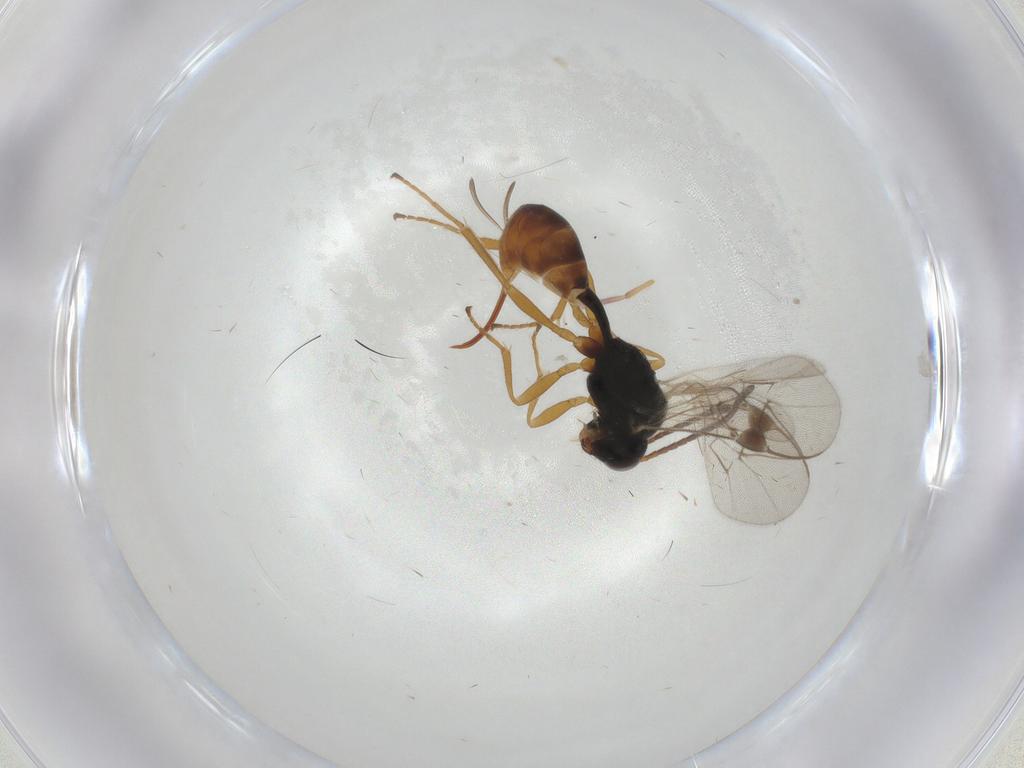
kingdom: Animalia
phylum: Arthropoda
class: Insecta
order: Hymenoptera
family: Ichneumonidae
